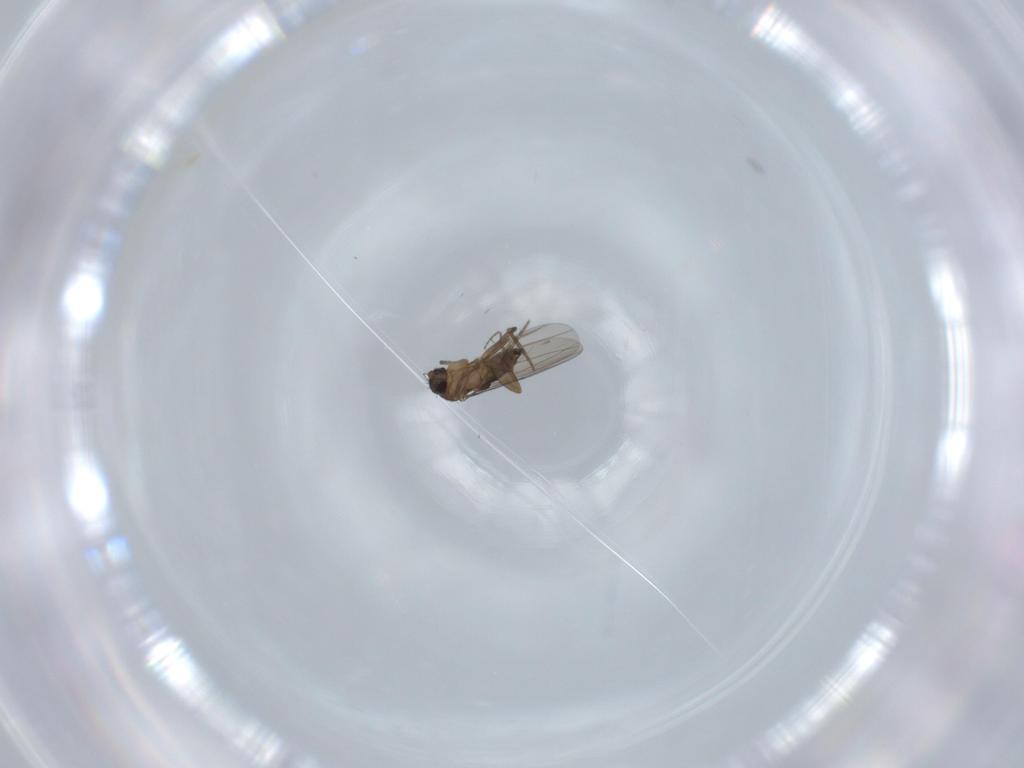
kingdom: Animalia
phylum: Arthropoda
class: Insecta
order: Diptera
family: Phoridae
